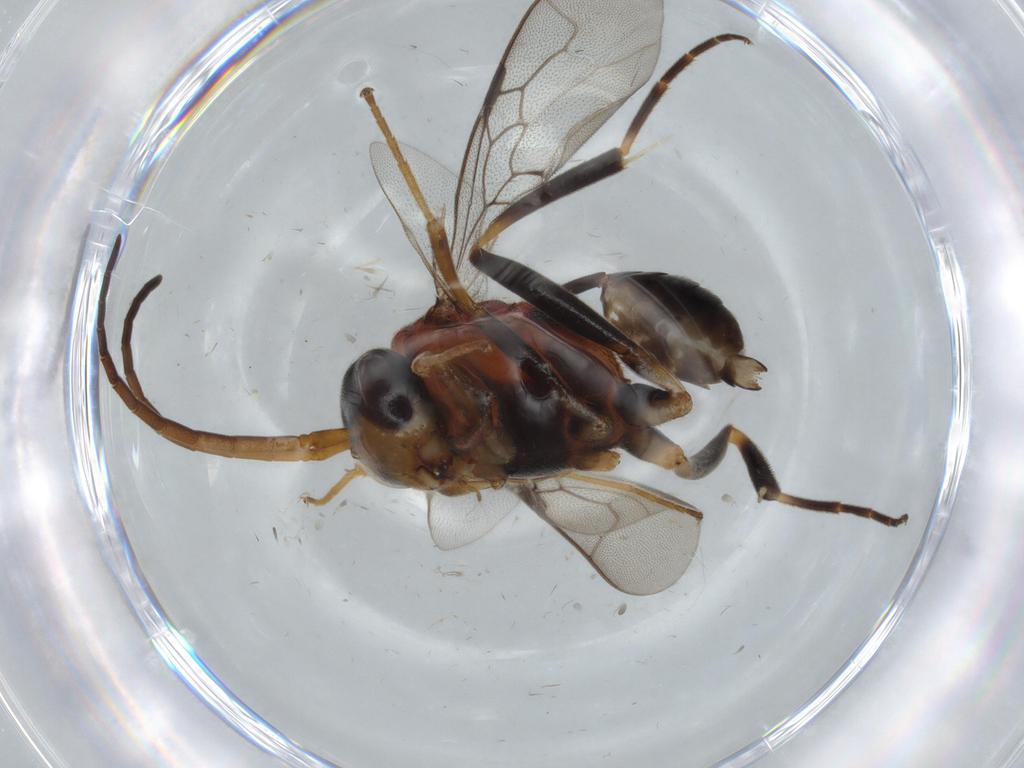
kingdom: Animalia
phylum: Arthropoda
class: Insecta
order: Hymenoptera
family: Evaniidae
